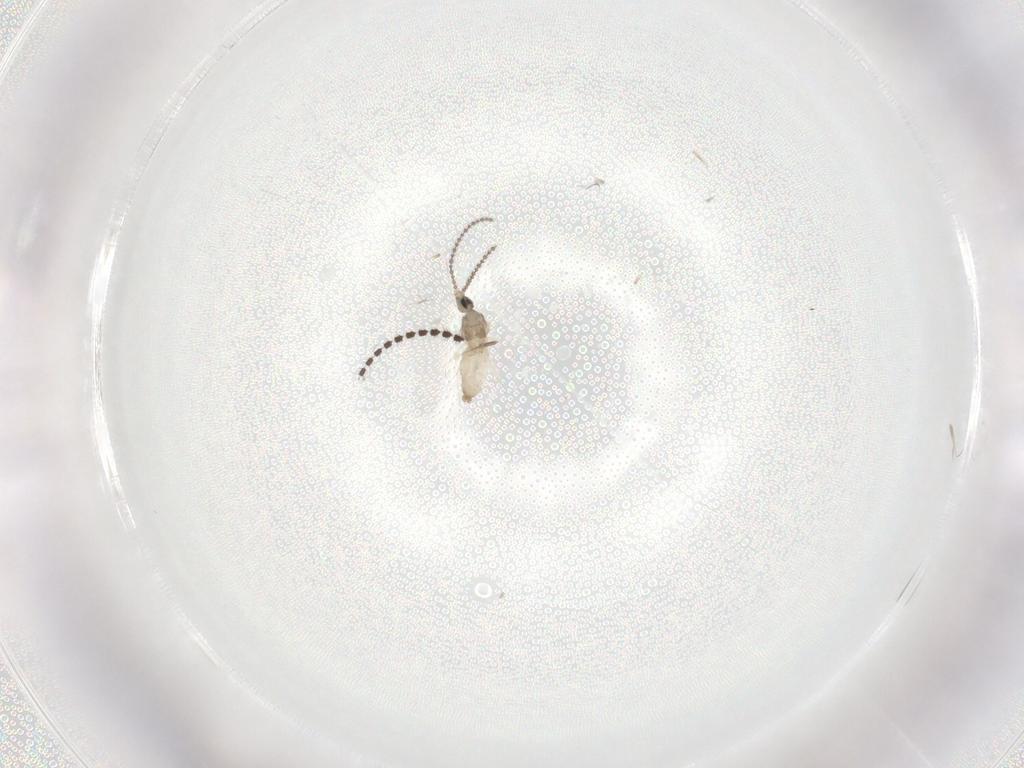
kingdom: Animalia
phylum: Arthropoda
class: Insecta
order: Diptera
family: Cecidomyiidae
